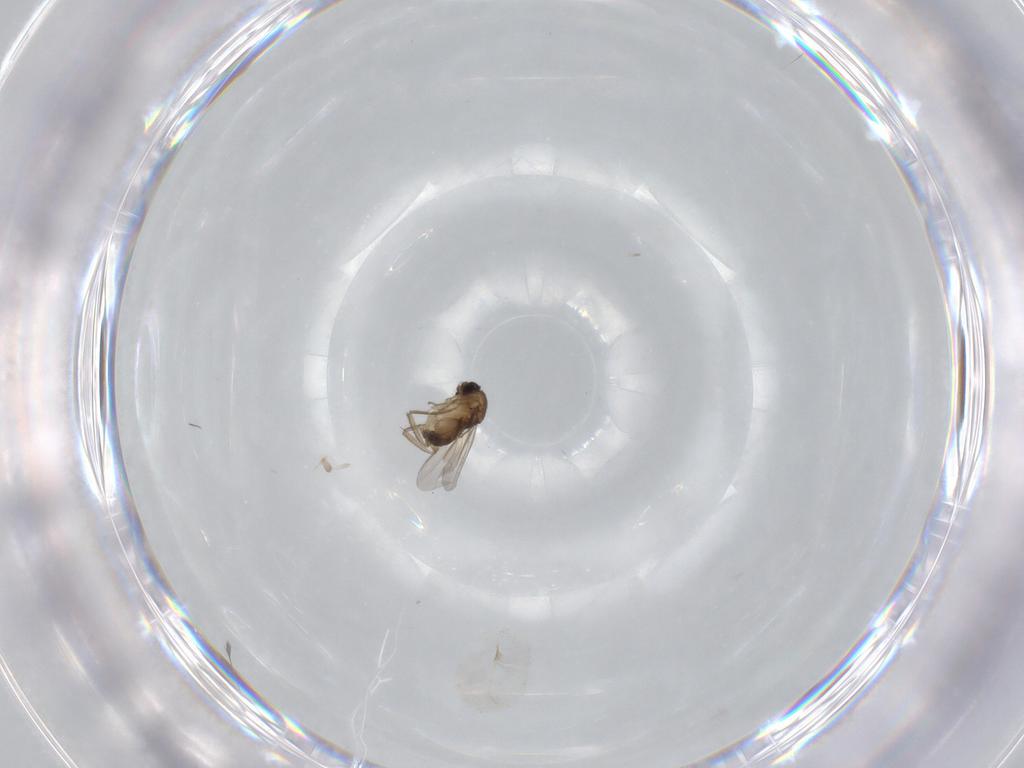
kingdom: Animalia
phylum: Arthropoda
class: Insecta
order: Diptera
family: Phoridae
